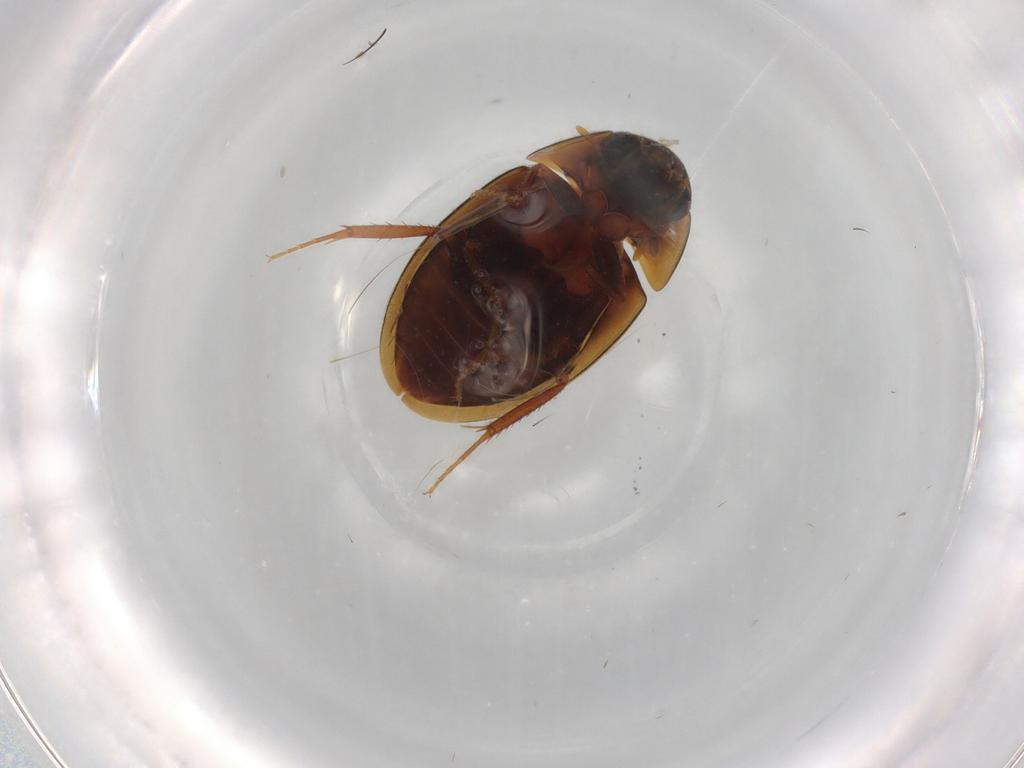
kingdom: Animalia
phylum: Arthropoda
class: Insecta
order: Coleoptera
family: Hydrophilidae
